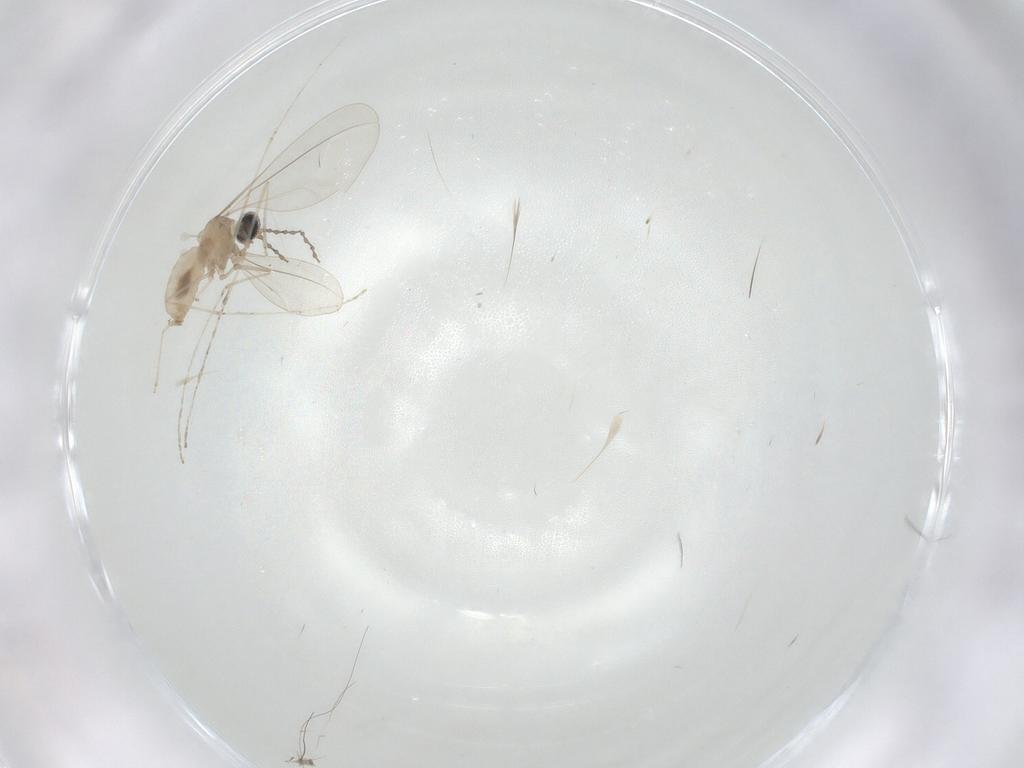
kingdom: Animalia
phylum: Arthropoda
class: Insecta
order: Diptera
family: Cecidomyiidae
